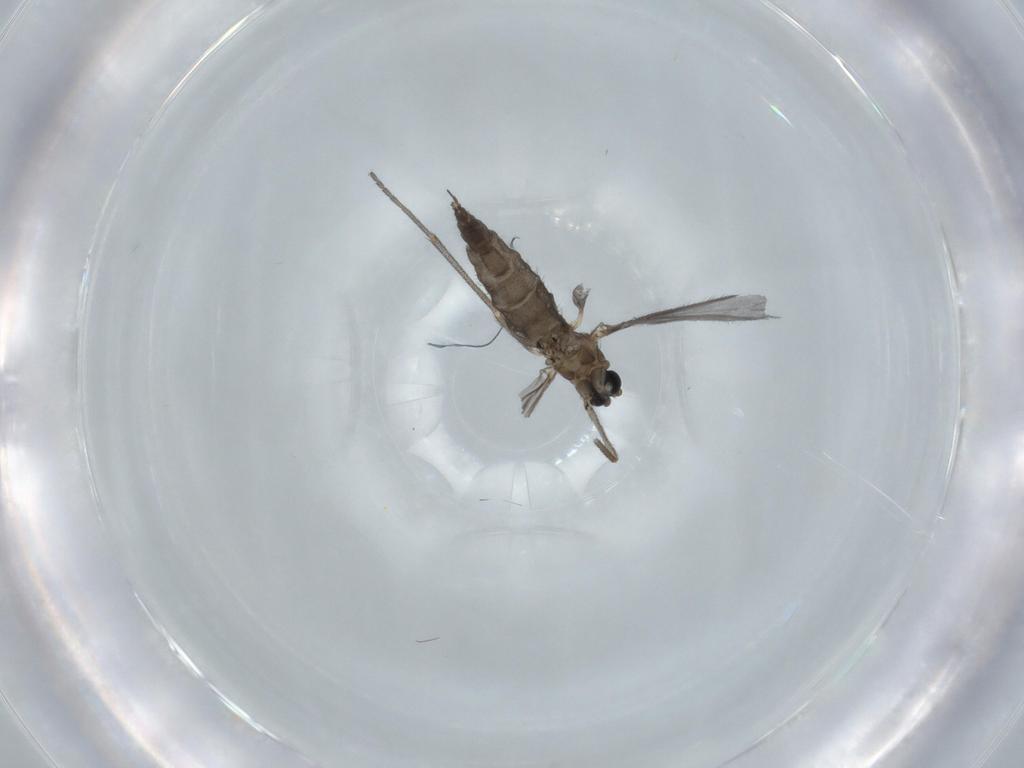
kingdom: Animalia
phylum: Arthropoda
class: Insecta
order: Diptera
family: Sciaridae
